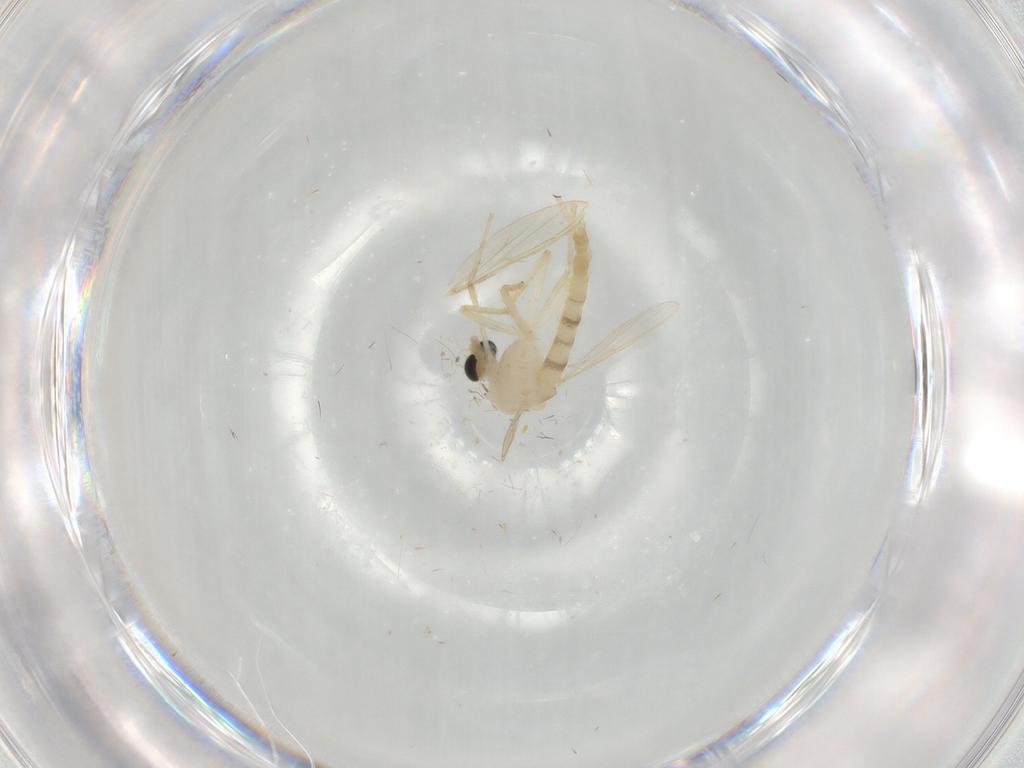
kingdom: Animalia
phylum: Arthropoda
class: Insecta
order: Diptera
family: Chironomidae
